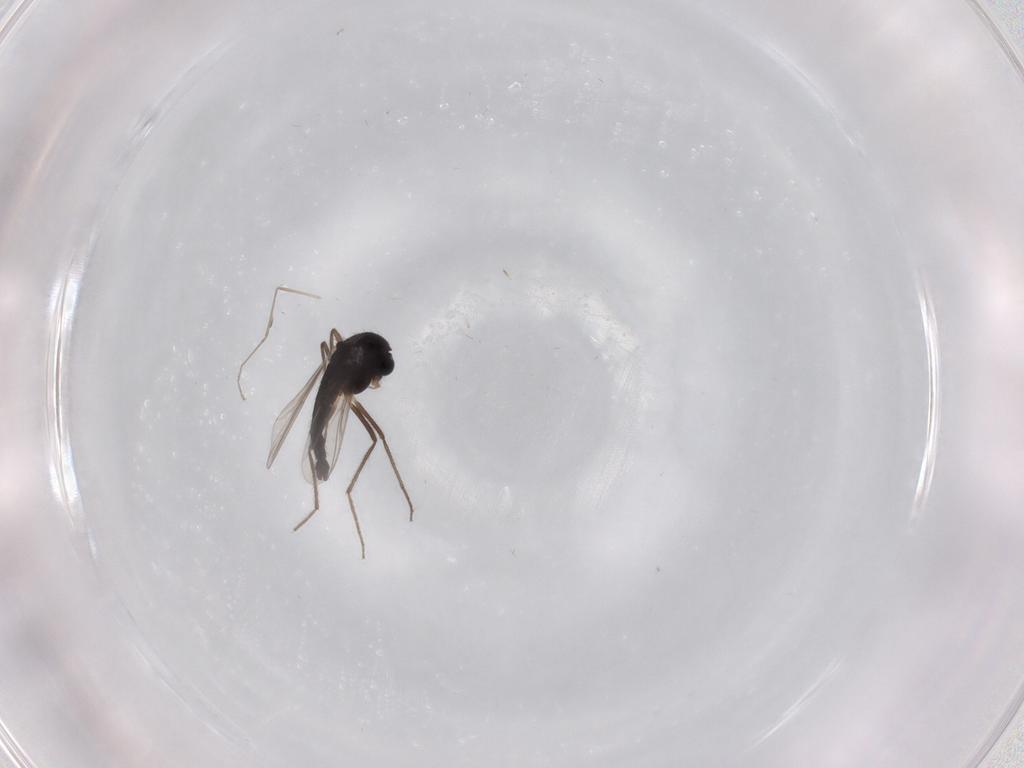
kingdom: Animalia
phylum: Arthropoda
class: Insecta
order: Diptera
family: Chironomidae
